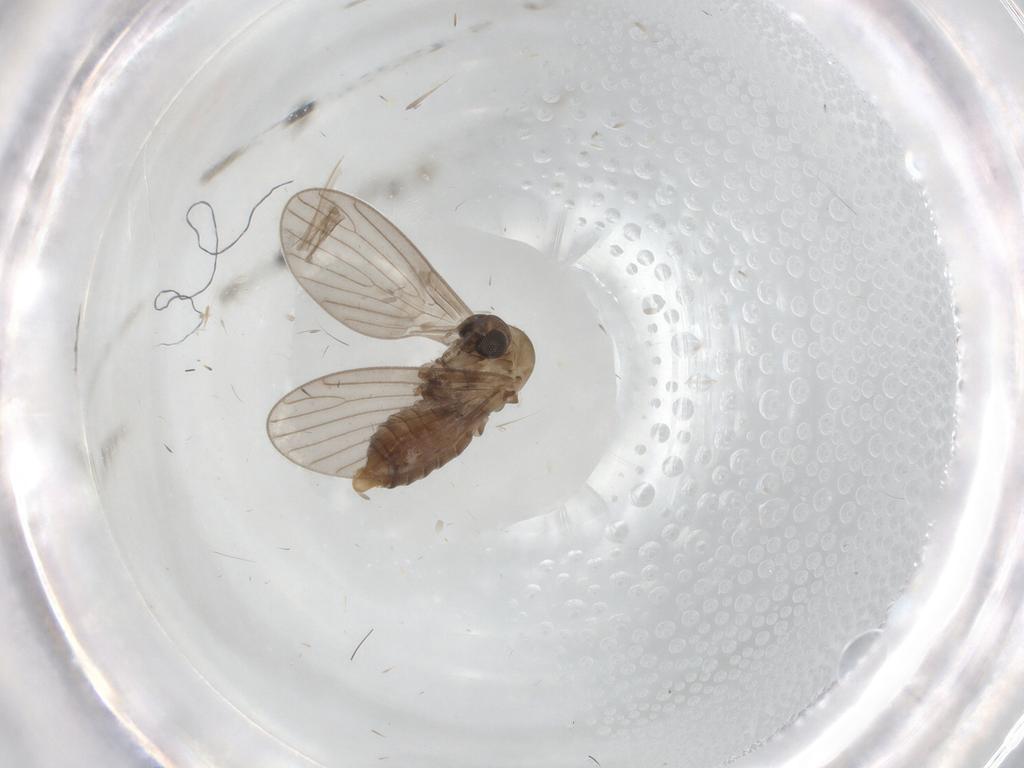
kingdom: Animalia
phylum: Arthropoda
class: Insecta
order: Diptera
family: Psychodidae
